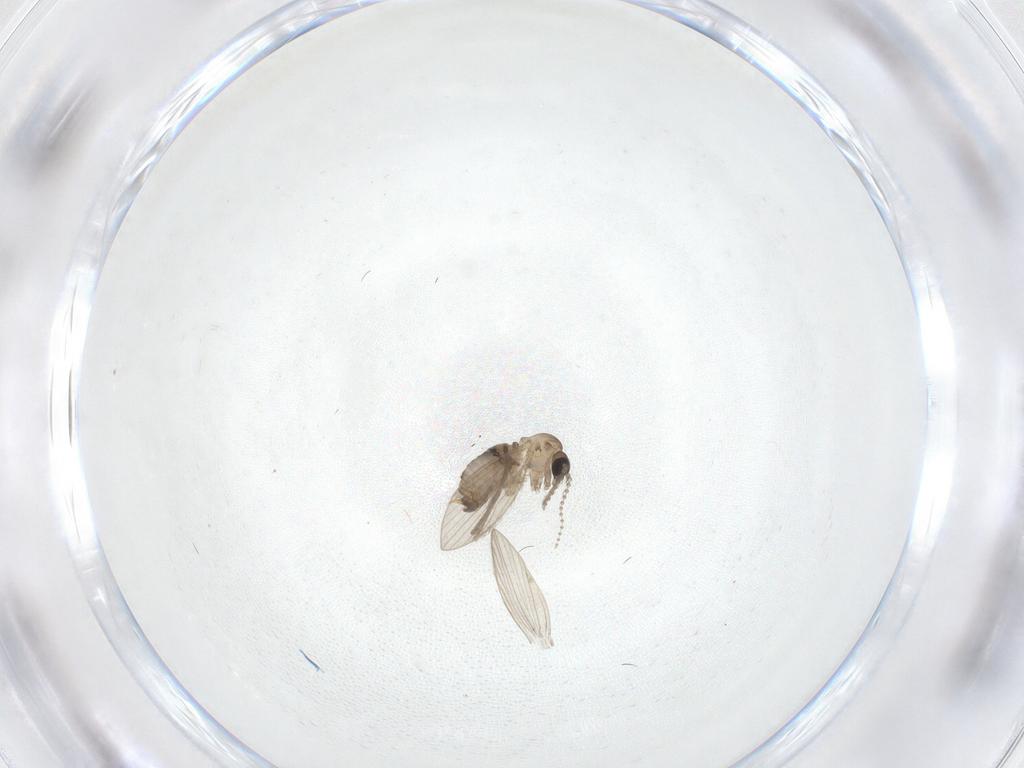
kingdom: Animalia
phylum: Arthropoda
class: Insecta
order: Diptera
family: Psychodidae
